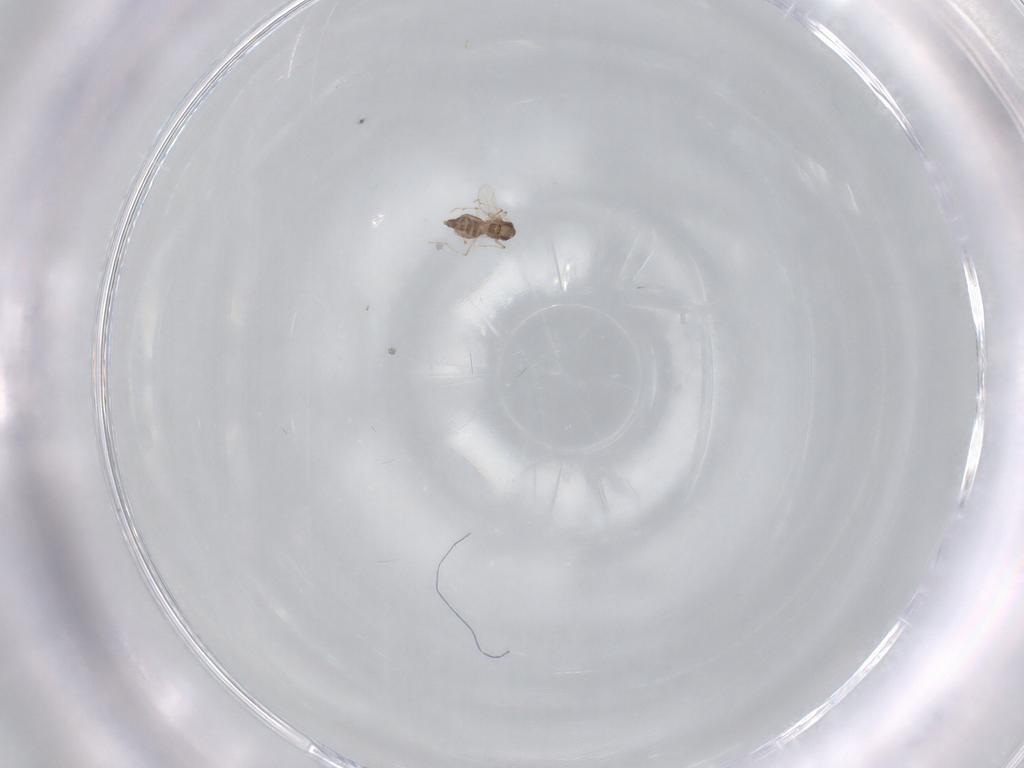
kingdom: Animalia
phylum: Arthropoda
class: Insecta
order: Diptera
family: Chironomidae
